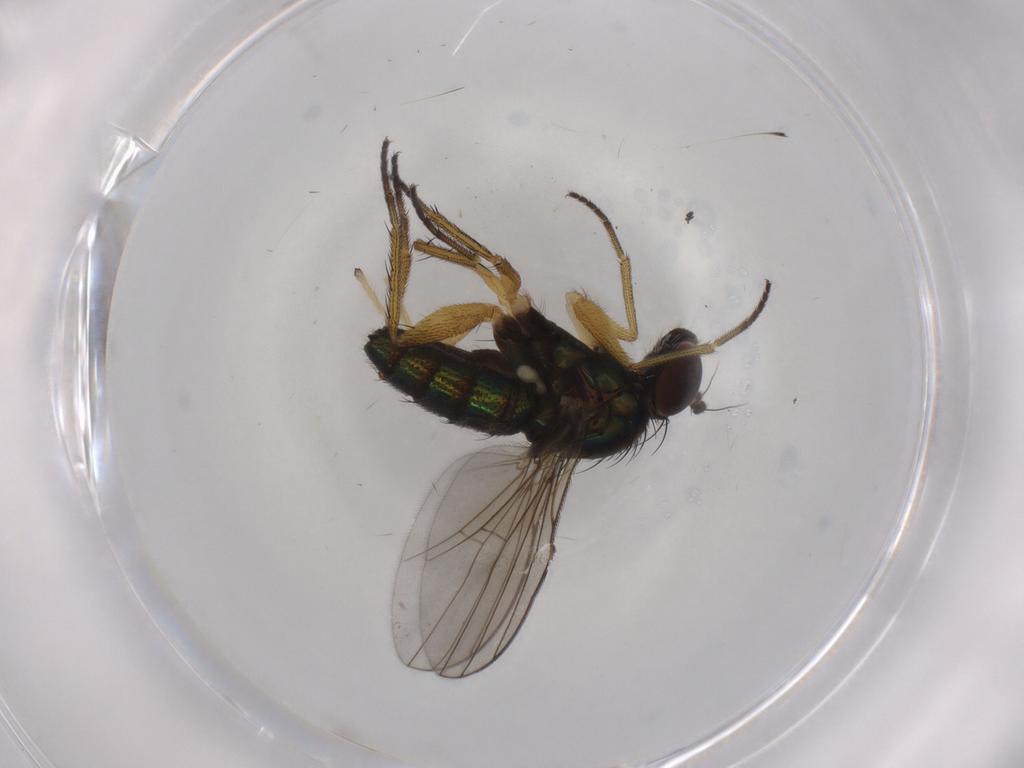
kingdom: Animalia
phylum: Arthropoda
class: Insecta
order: Diptera
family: Dolichopodidae
